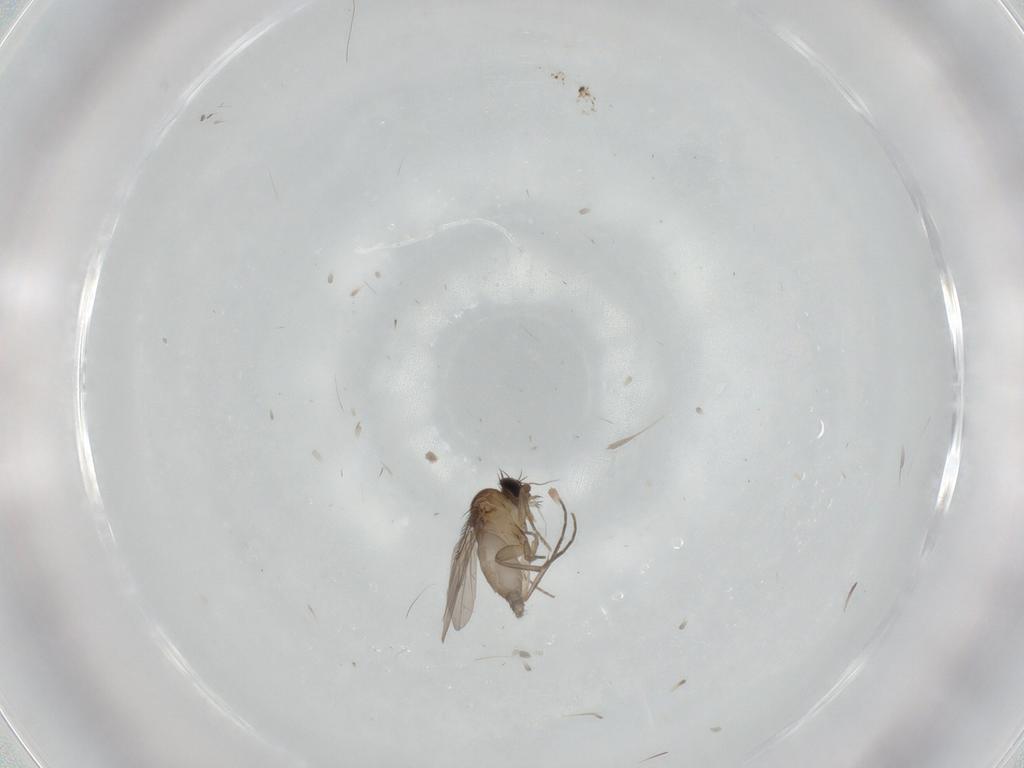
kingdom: Animalia
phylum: Arthropoda
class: Insecta
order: Diptera
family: Phoridae
